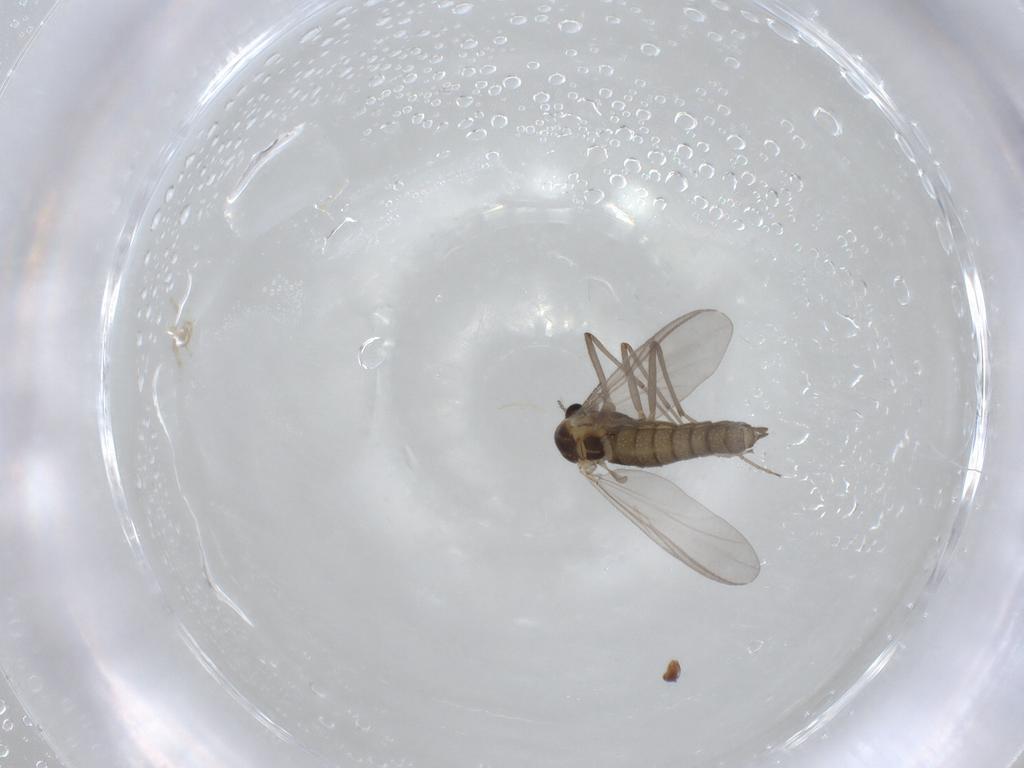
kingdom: Animalia
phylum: Arthropoda
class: Insecta
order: Diptera
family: Chironomidae
